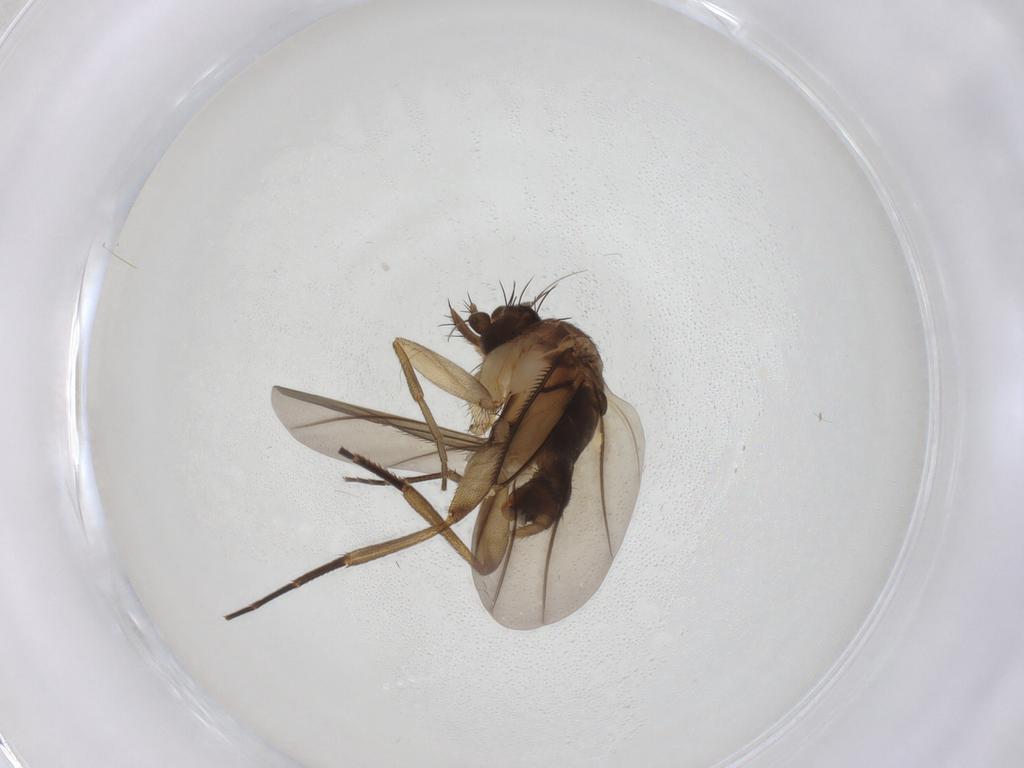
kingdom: Animalia
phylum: Arthropoda
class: Insecta
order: Diptera
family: Phoridae
